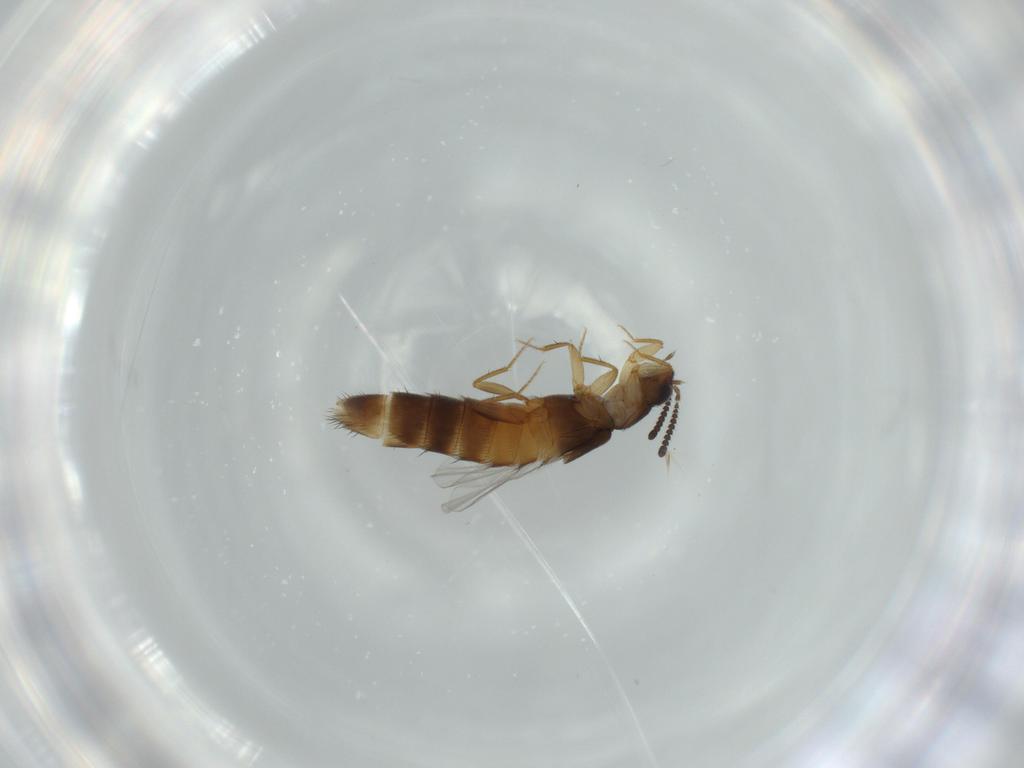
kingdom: Animalia
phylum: Arthropoda
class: Insecta
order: Coleoptera
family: Staphylinidae
